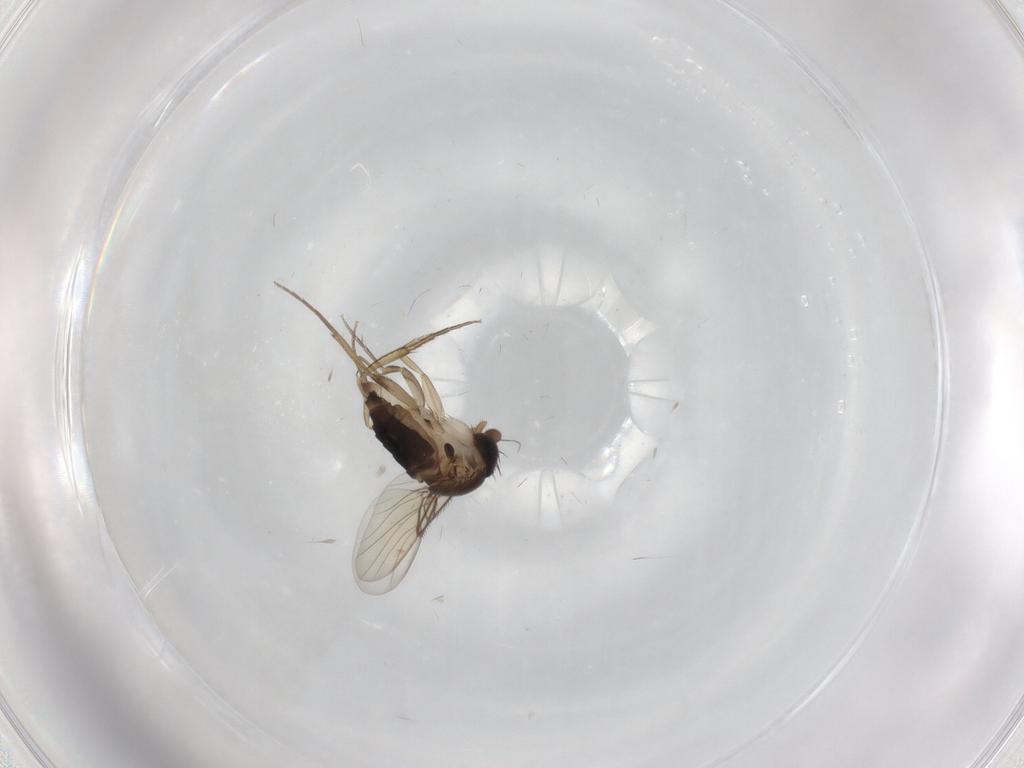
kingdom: Animalia
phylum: Arthropoda
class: Insecta
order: Diptera
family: Phoridae
